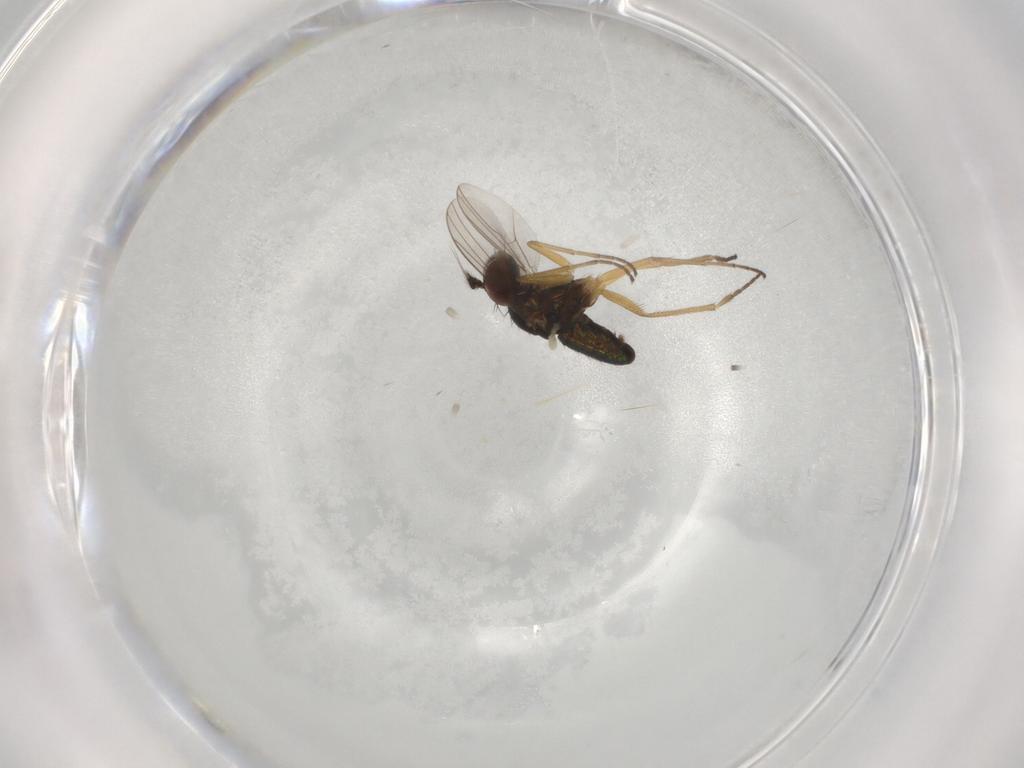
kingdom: Animalia
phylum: Arthropoda
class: Insecta
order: Diptera
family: Dolichopodidae
